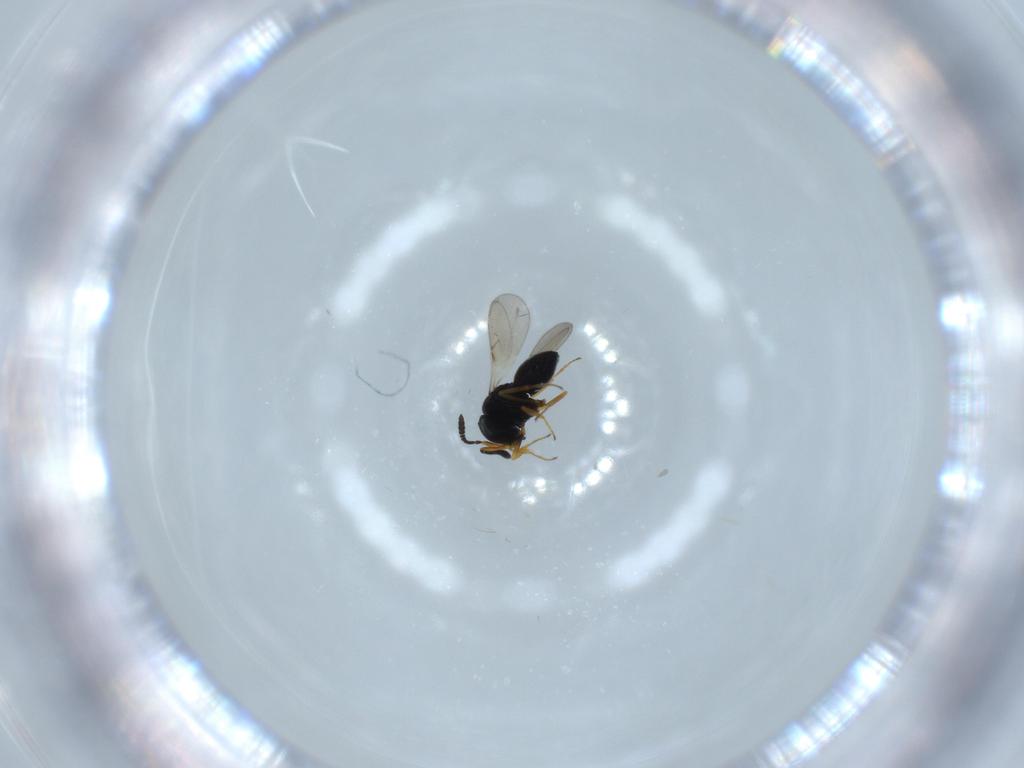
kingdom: Animalia
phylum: Arthropoda
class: Insecta
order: Hymenoptera
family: Scelionidae
